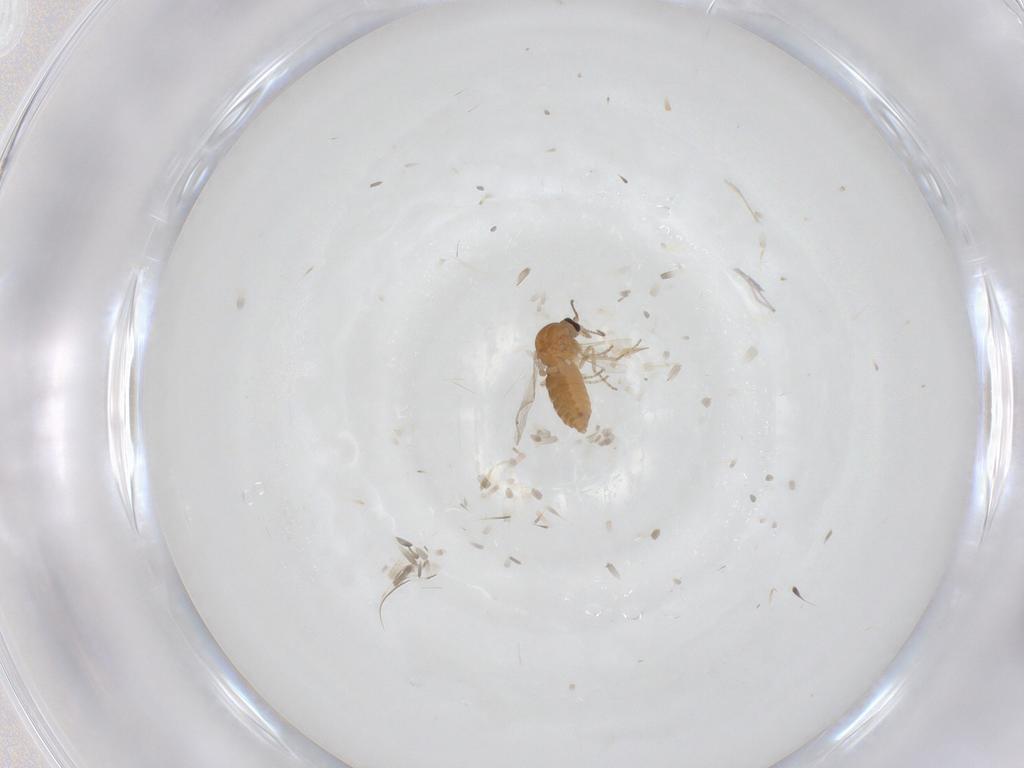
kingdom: Animalia
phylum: Arthropoda
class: Insecta
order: Diptera
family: Ceratopogonidae
